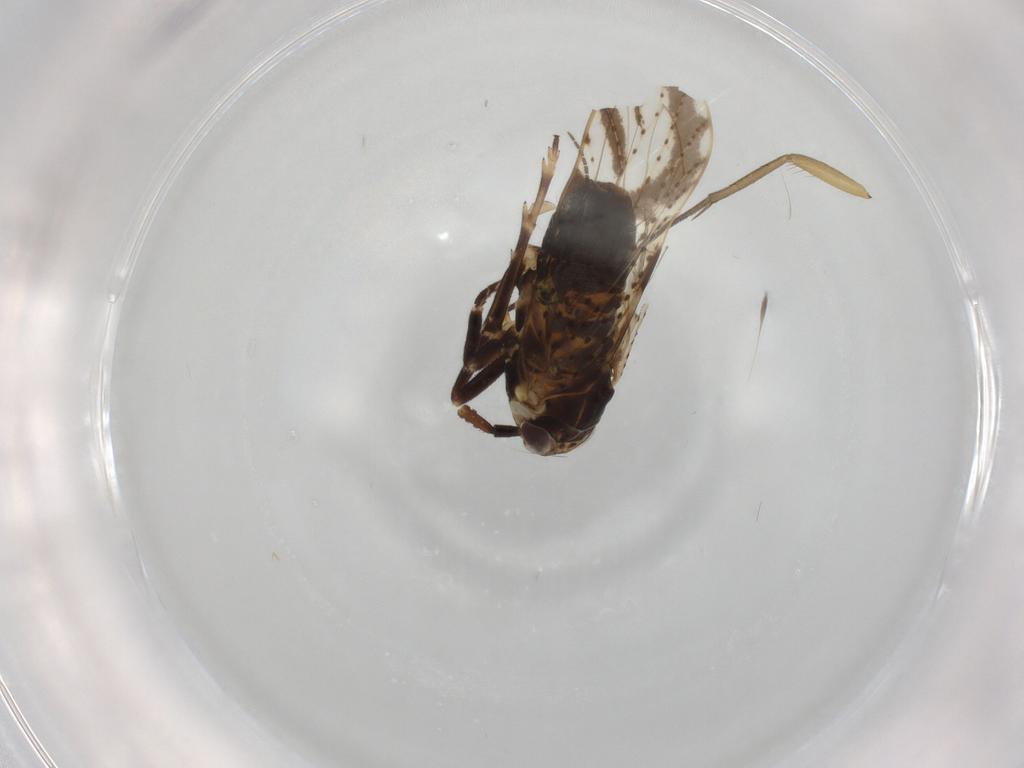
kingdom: Animalia
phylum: Arthropoda
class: Insecta
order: Hemiptera
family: Delphacidae
